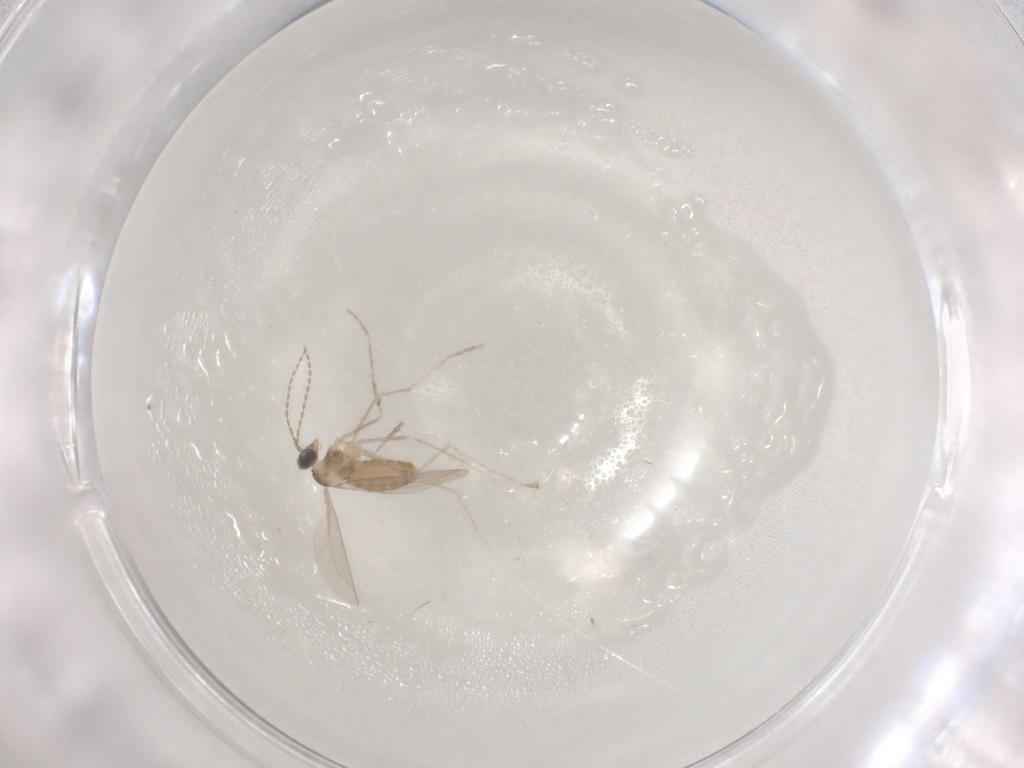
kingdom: Animalia
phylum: Arthropoda
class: Insecta
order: Diptera
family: Cecidomyiidae
